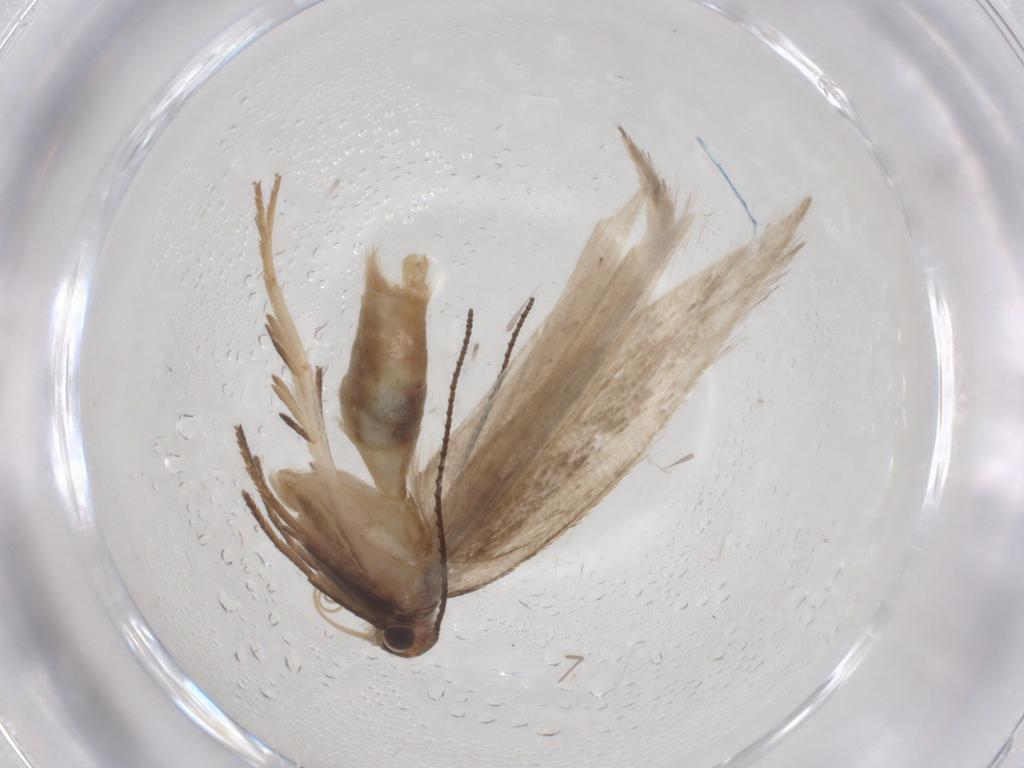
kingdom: Animalia
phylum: Arthropoda
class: Insecta
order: Lepidoptera
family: Gelechiidae
